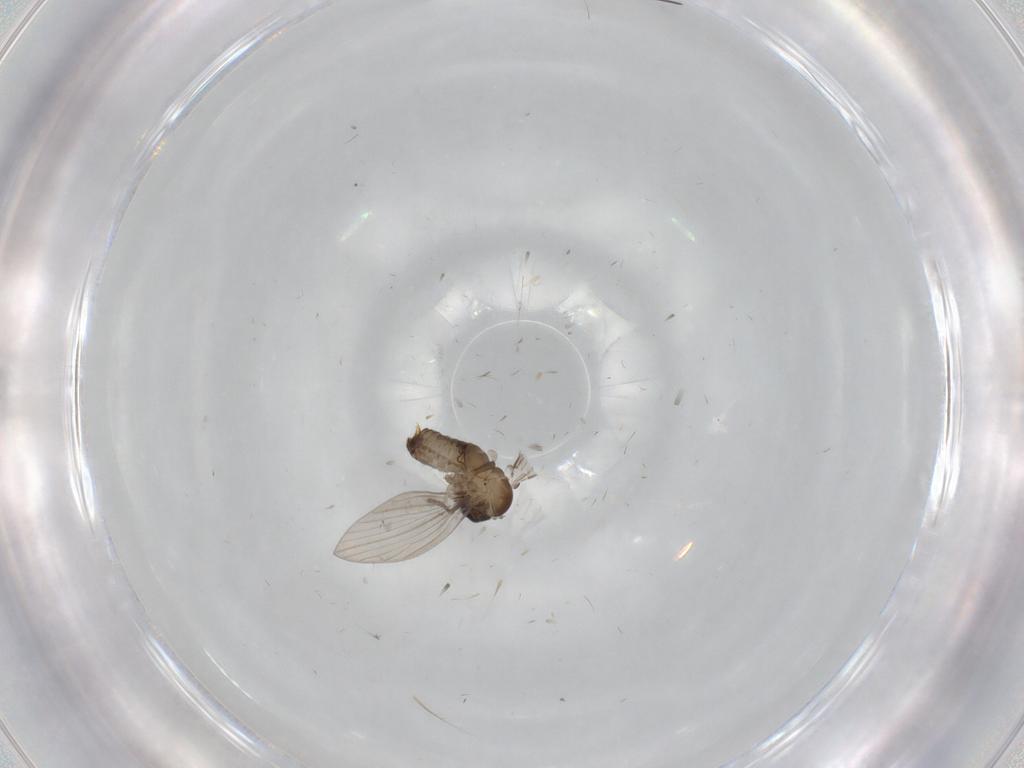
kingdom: Animalia
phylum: Arthropoda
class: Insecta
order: Diptera
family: Psychodidae
